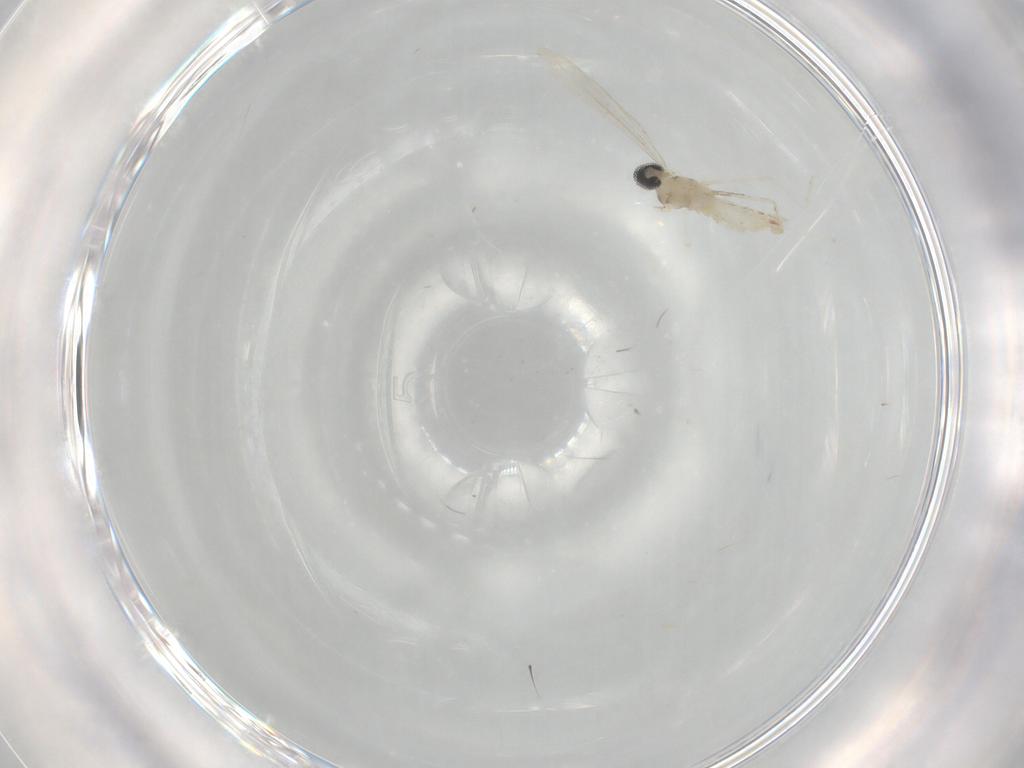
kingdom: Animalia
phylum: Arthropoda
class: Insecta
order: Diptera
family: Cecidomyiidae
